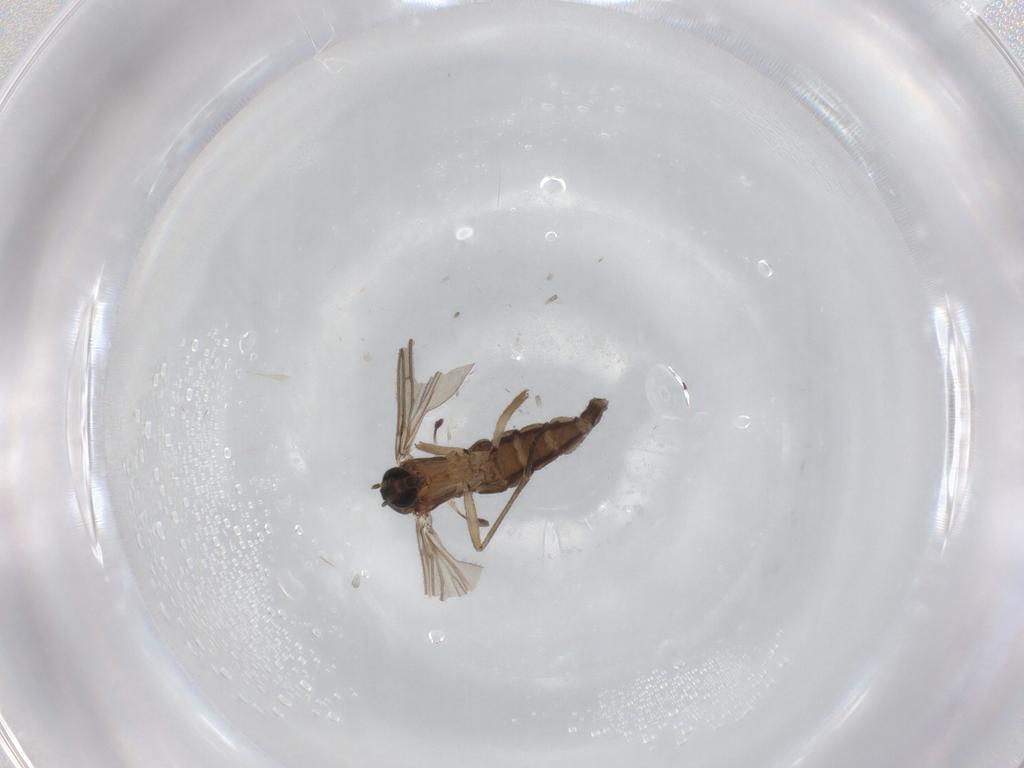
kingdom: Animalia
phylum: Arthropoda
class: Insecta
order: Diptera
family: Sciaridae
